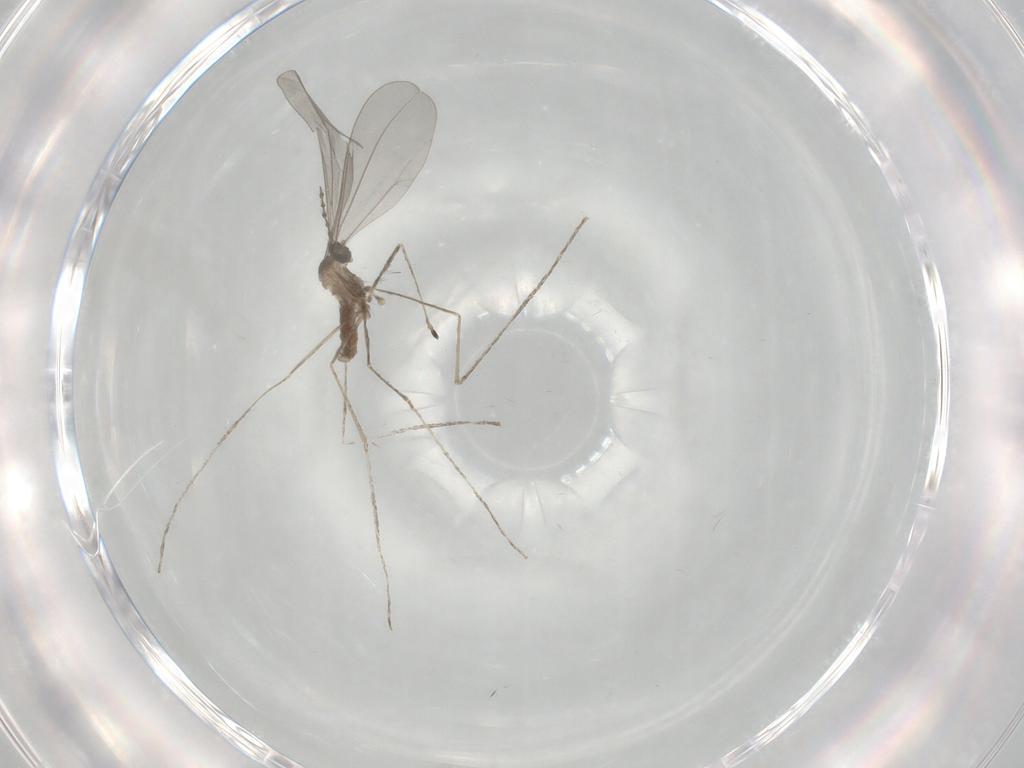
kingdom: Animalia
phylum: Arthropoda
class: Insecta
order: Diptera
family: Cecidomyiidae
